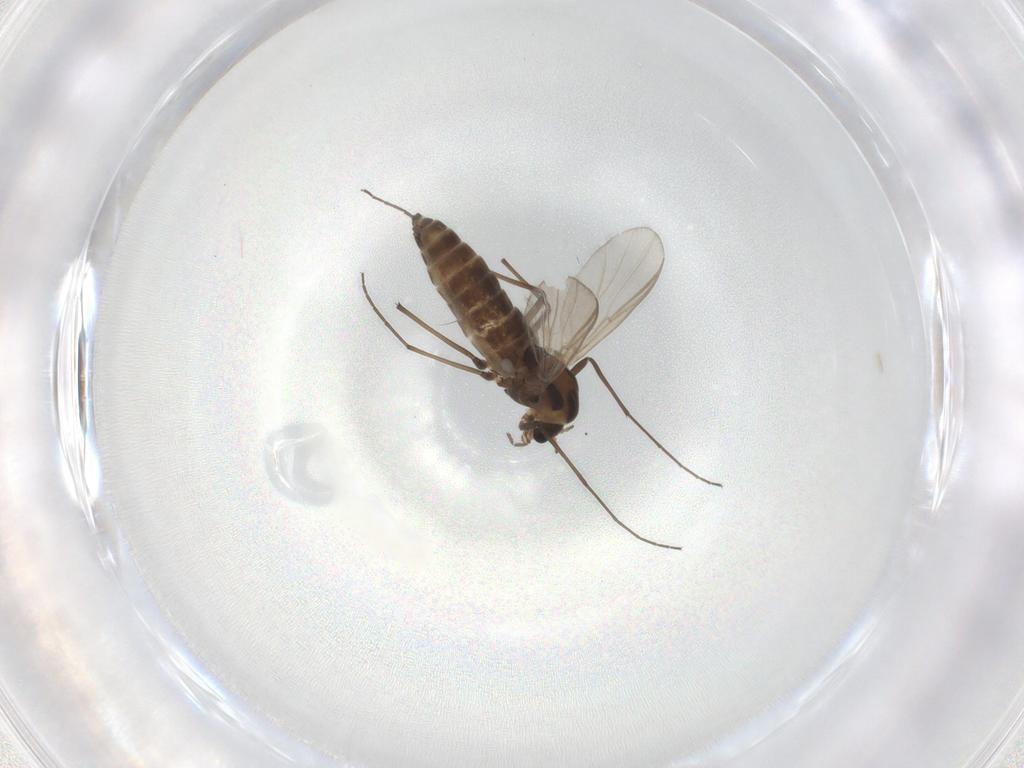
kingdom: Animalia
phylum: Arthropoda
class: Insecta
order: Diptera
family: Chironomidae
